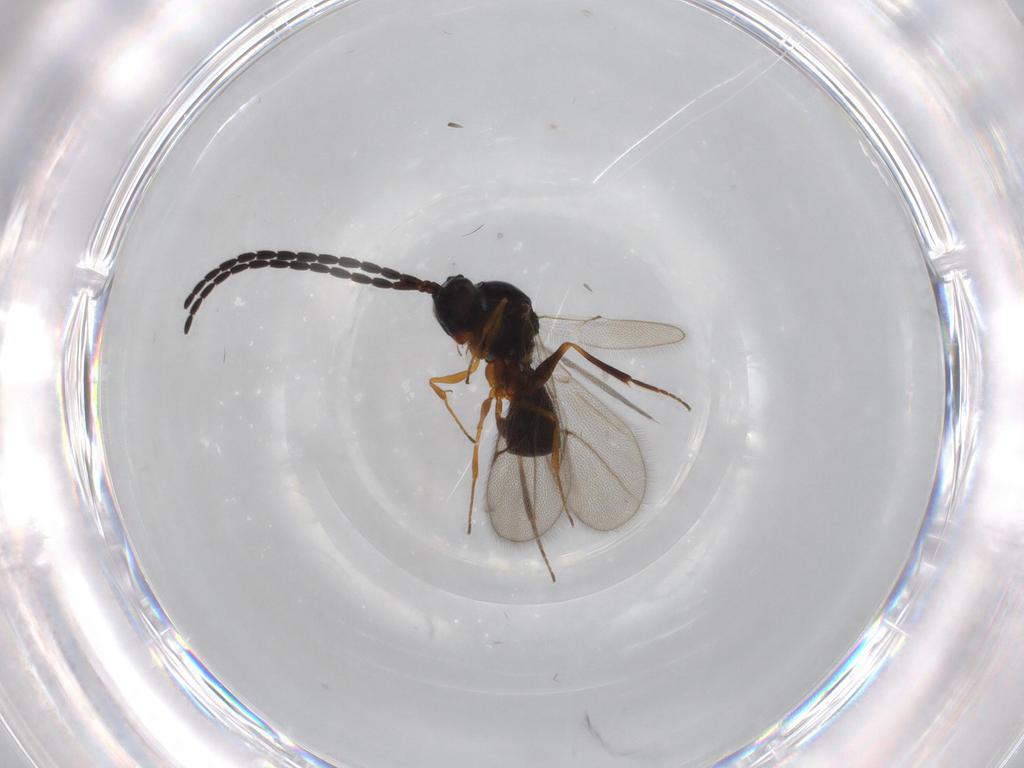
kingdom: Animalia
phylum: Arthropoda
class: Insecta
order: Hymenoptera
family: Figitidae
